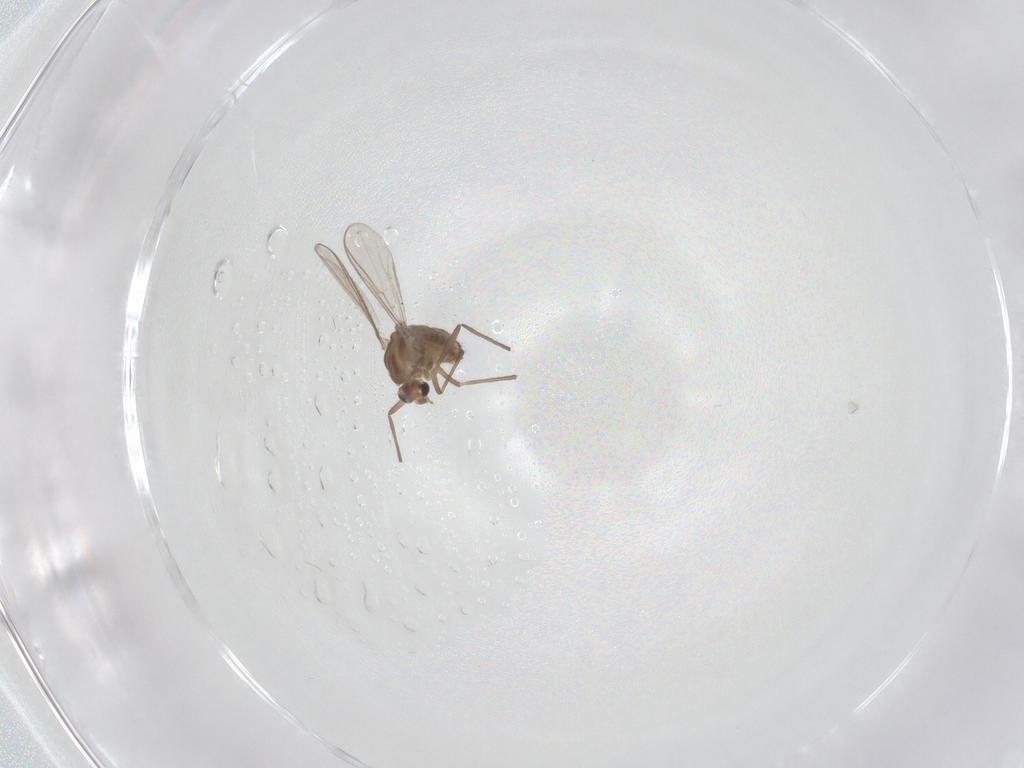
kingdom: Animalia
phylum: Arthropoda
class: Insecta
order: Diptera
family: Chironomidae
